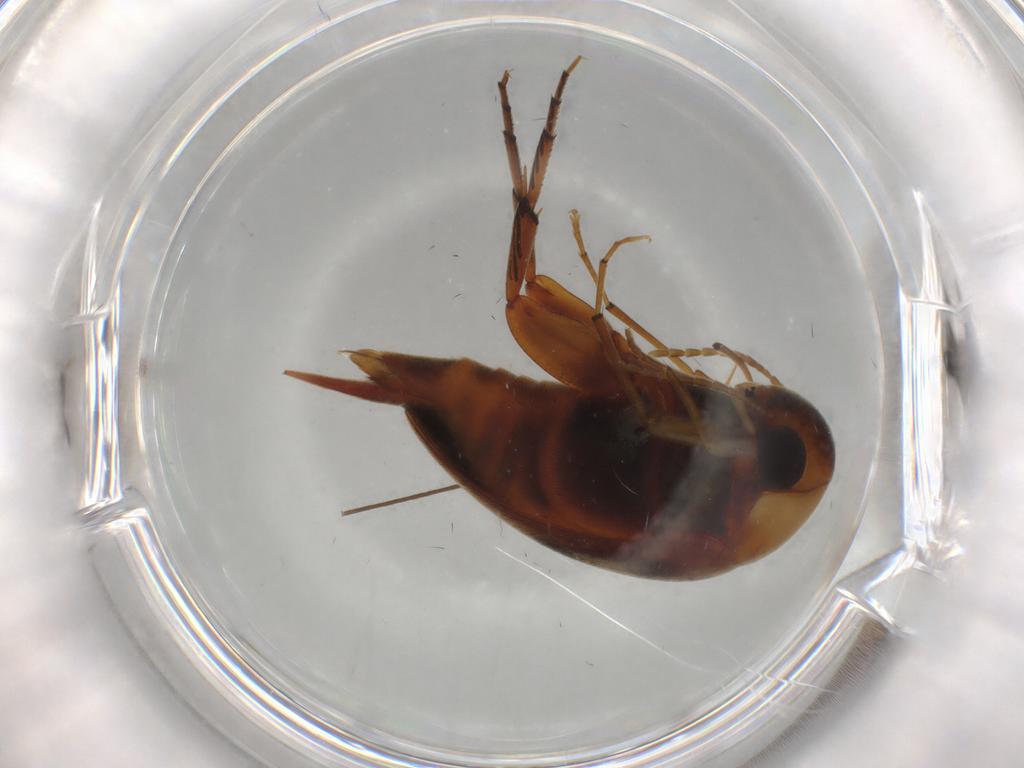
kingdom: Animalia
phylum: Arthropoda
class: Insecta
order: Coleoptera
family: Mordellidae
